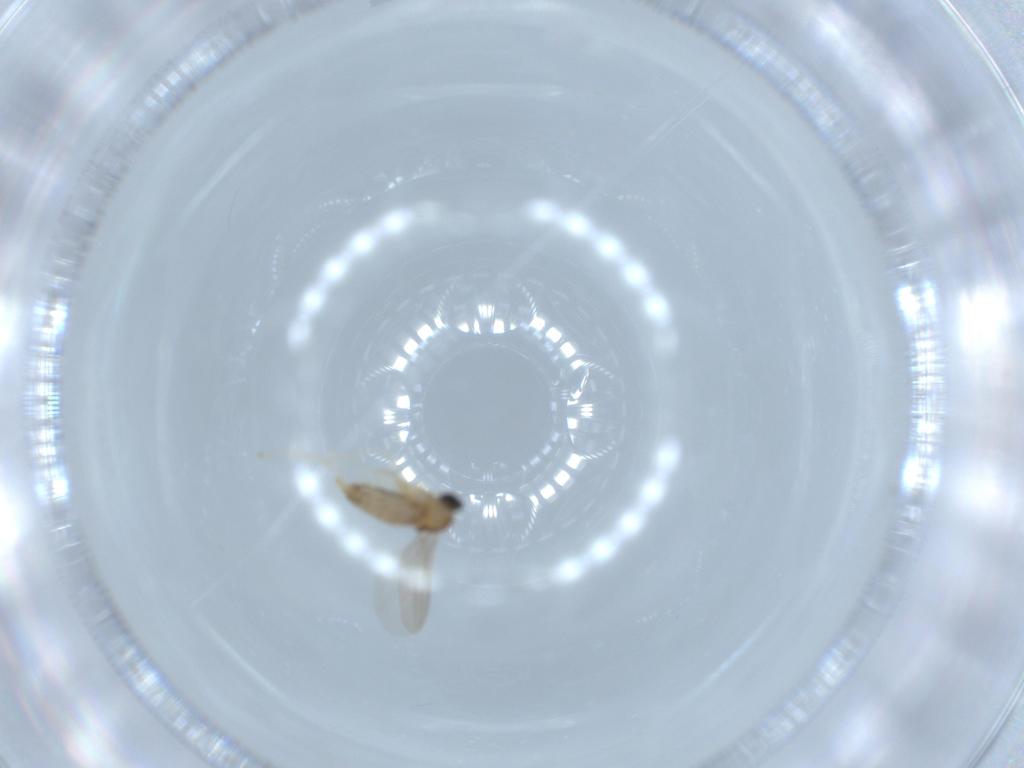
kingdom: Animalia
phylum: Arthropoda
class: Insecta
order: Diptera
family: Cecidomyiidae
